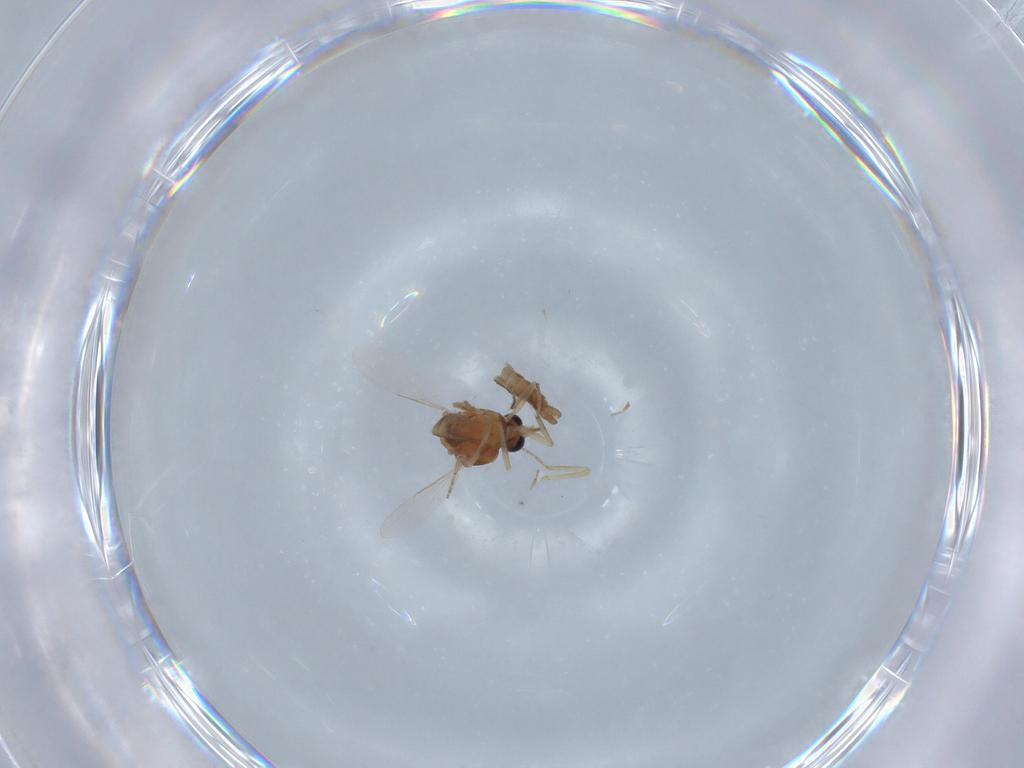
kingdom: Animalia
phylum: Arthropoda
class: Insecta
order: Diptera
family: Ceratopogonidae
